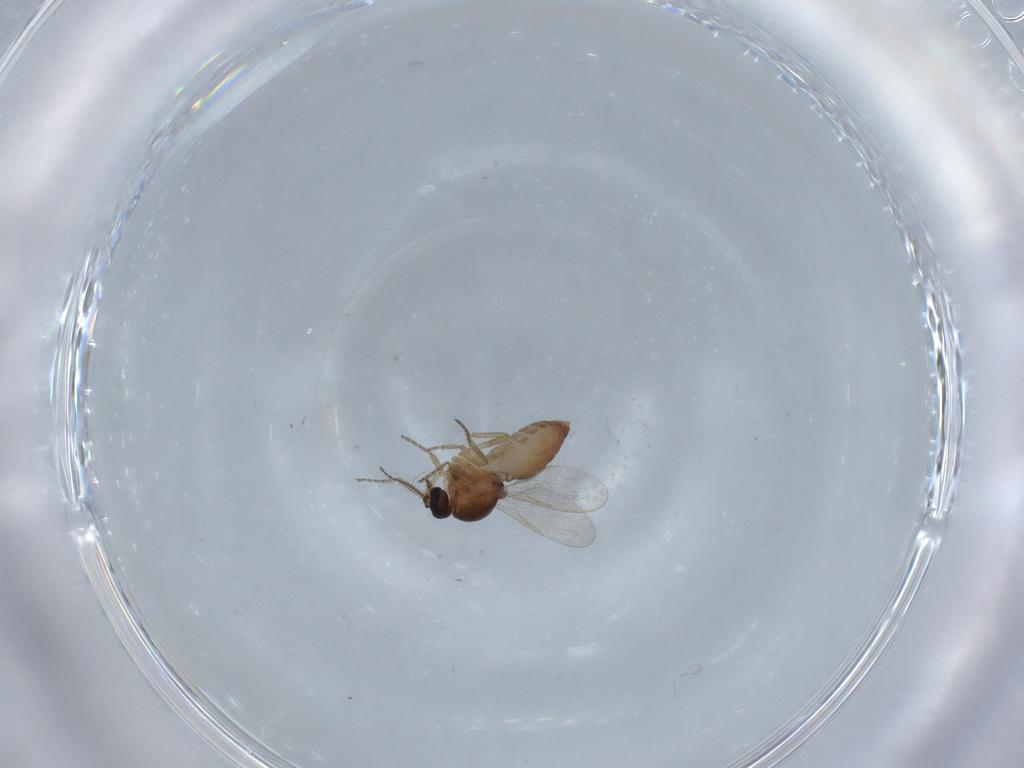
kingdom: Animalia
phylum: Arthropoda
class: Insecta
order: Diptera
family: Ceratopogonidae
